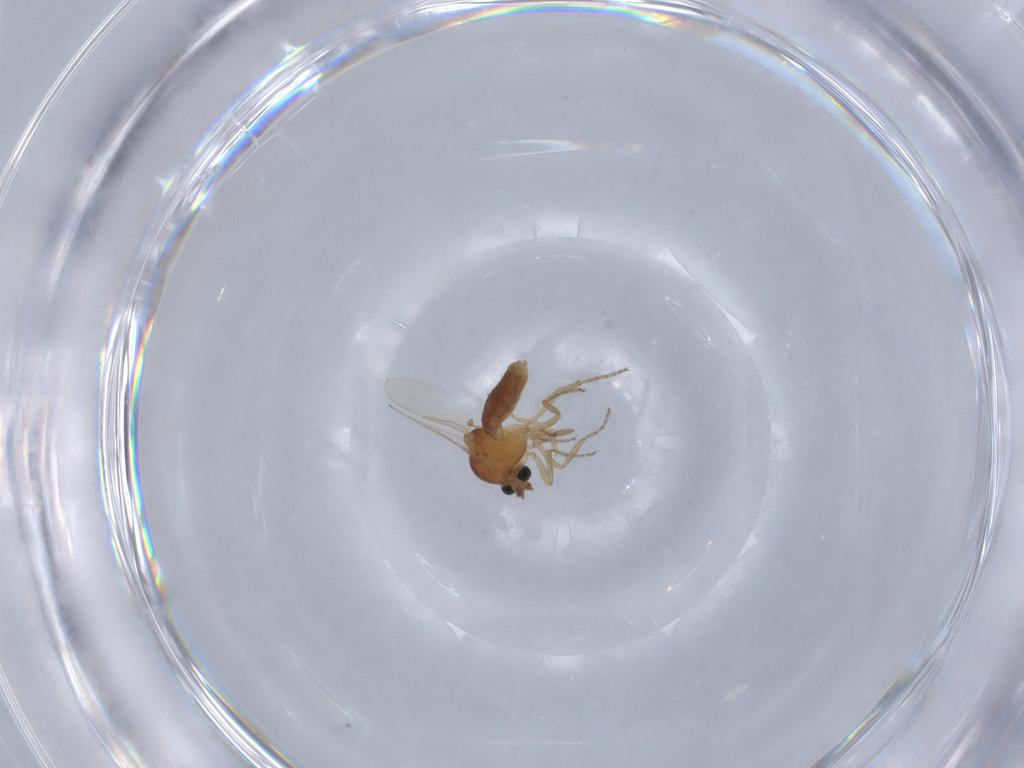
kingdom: Animalia
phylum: Arthropoda
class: Insecta
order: Diptera
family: Ceratopogonidae
